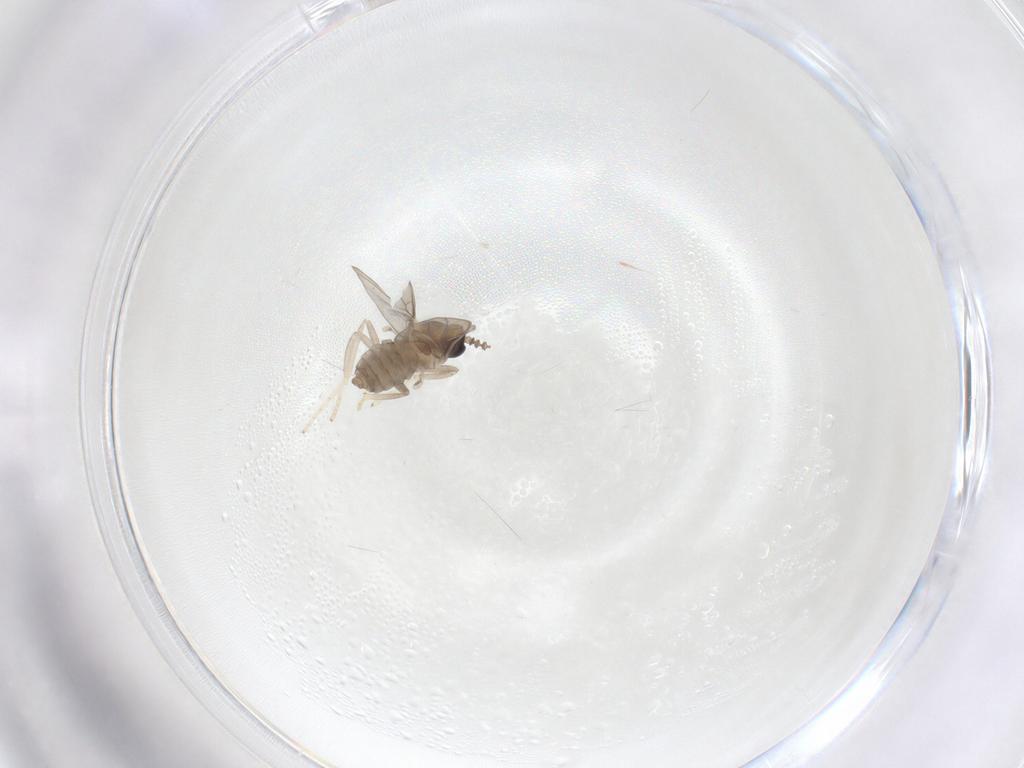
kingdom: Animalia
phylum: Arthropoda
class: Insecta
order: Diptera
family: Cecidomyiidae
